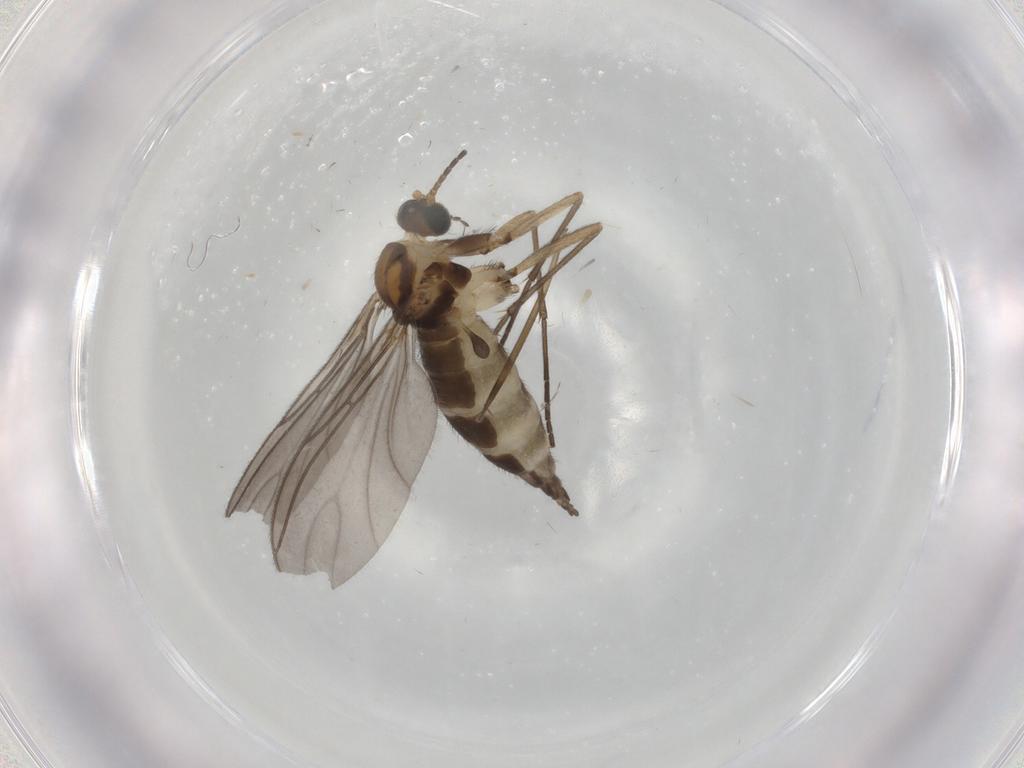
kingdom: Animalia
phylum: Arthropoda
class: Insecta
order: Diptera
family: Sciaridae
